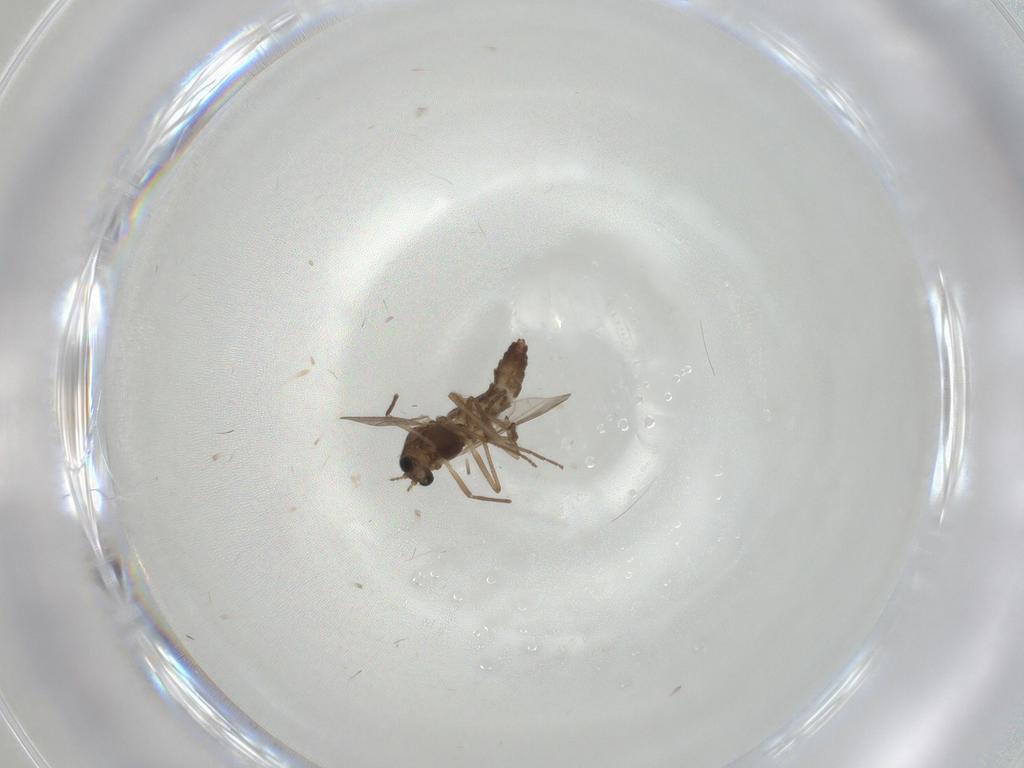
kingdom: Animalia
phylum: Arthropoda
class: Insecta
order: Diptera
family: Chironomidae
